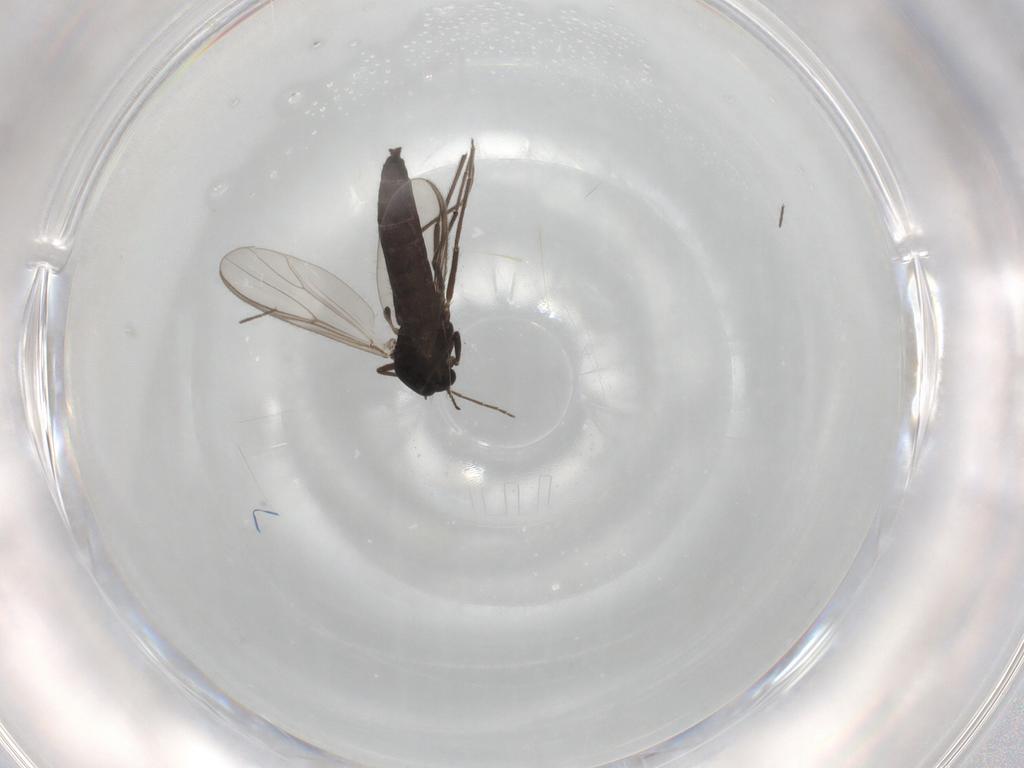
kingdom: Animalia
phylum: Arthropoda
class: Insecta
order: Diptera
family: Chironomidae
